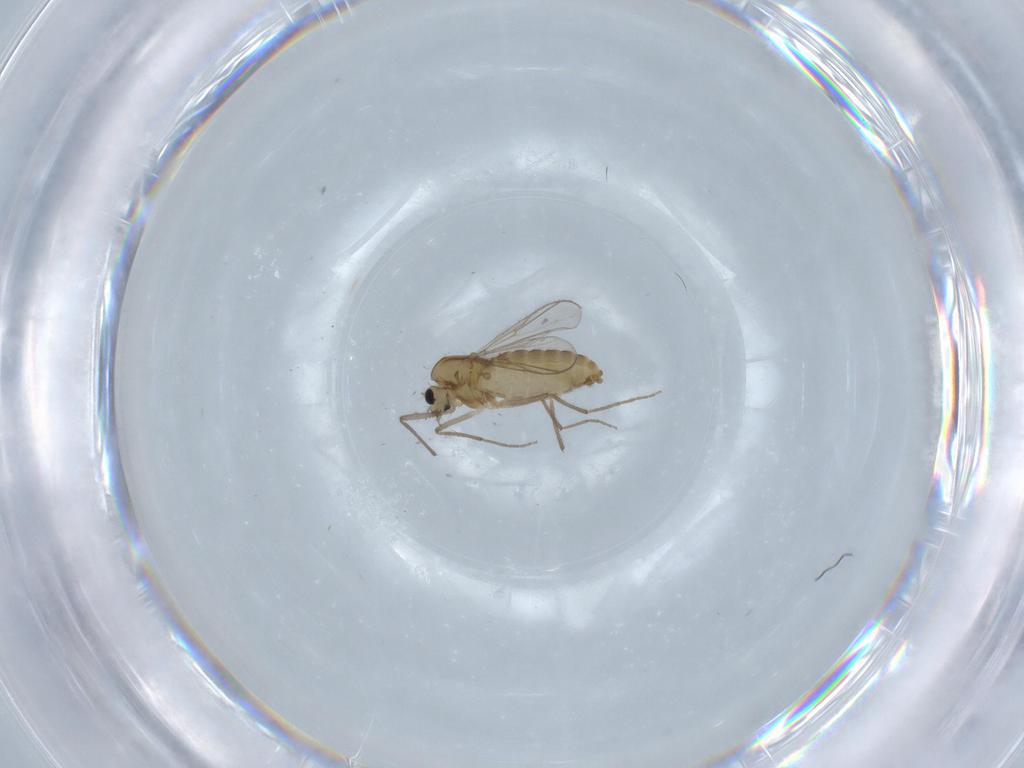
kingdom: Animalia
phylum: Arthropoda
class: Insecta
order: Diptera
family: Chironomidae
